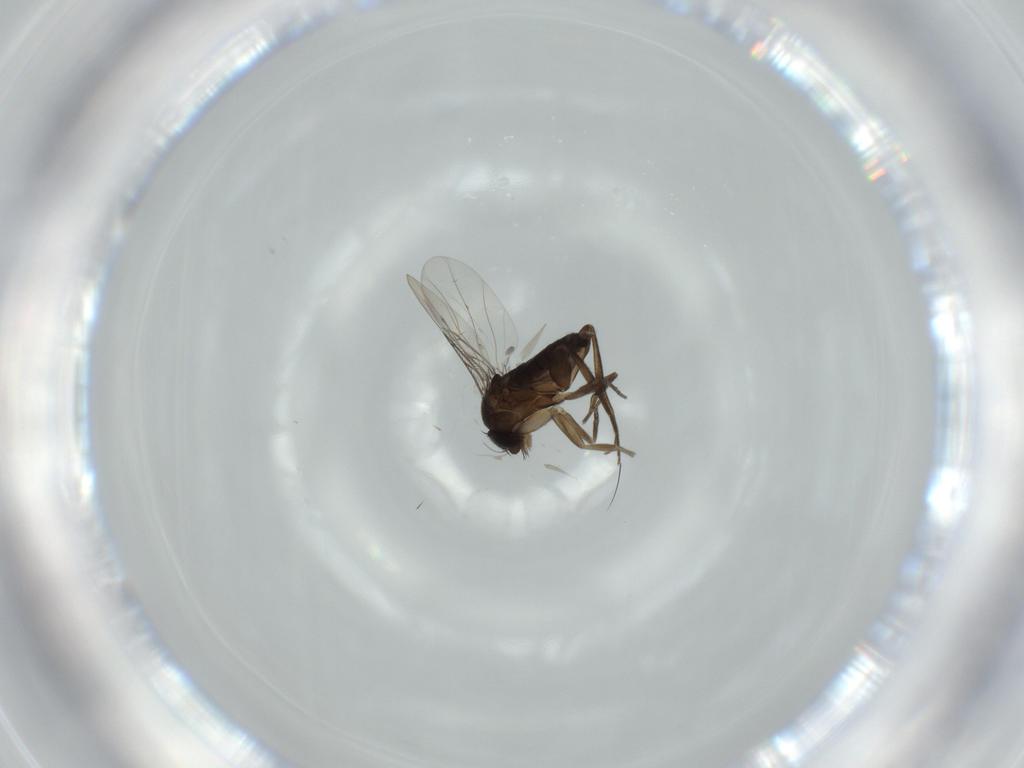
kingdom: Animalia
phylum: Arthropoda
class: Insecta
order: Diptera
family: Phoridae
